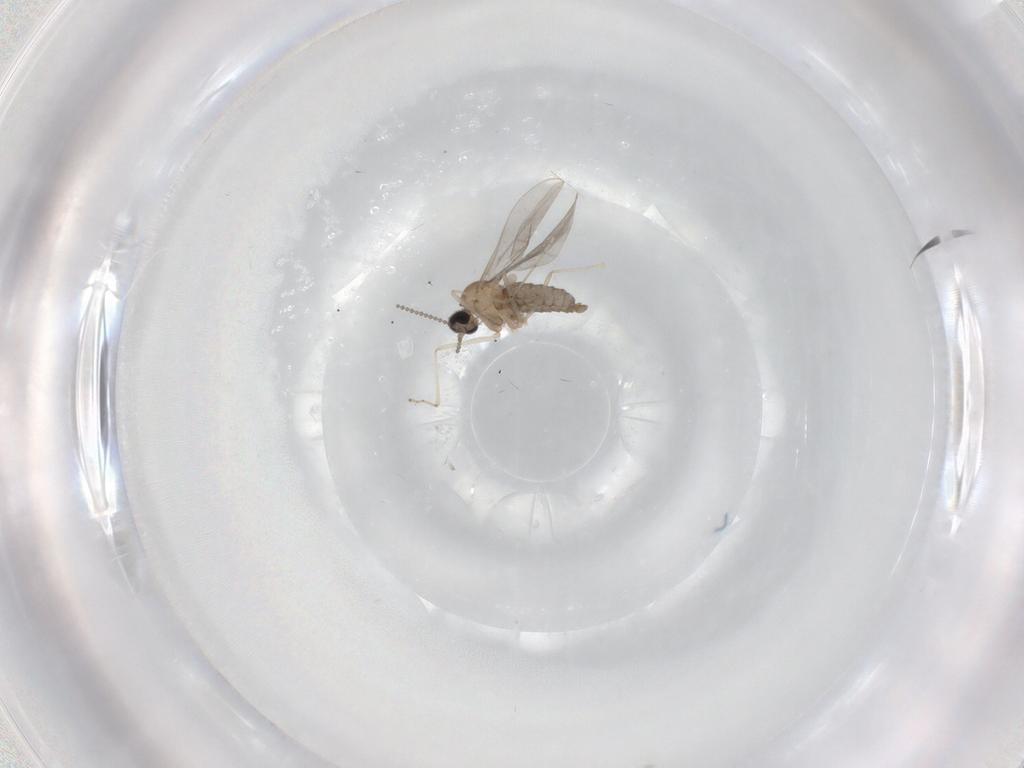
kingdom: Animalia
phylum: Arthropoda
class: Insecta
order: Diptera
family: Cecidomyiidae
